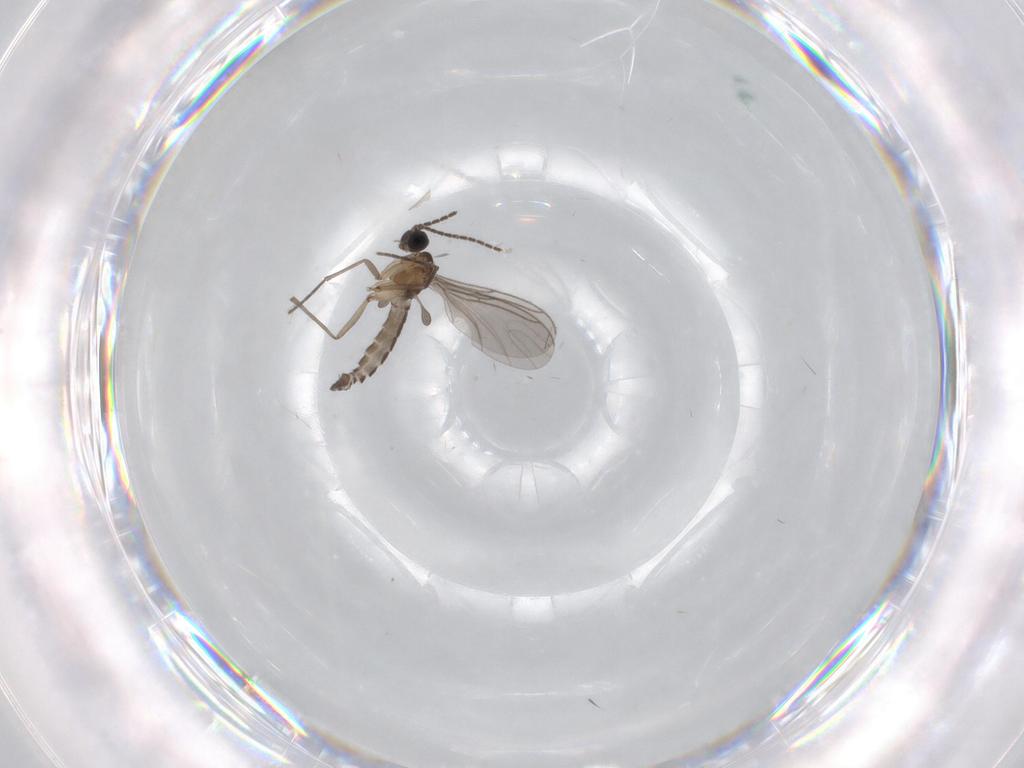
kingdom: Animalia
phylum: Arthropoda
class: Insecta
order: Diptera
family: Sciaridae
